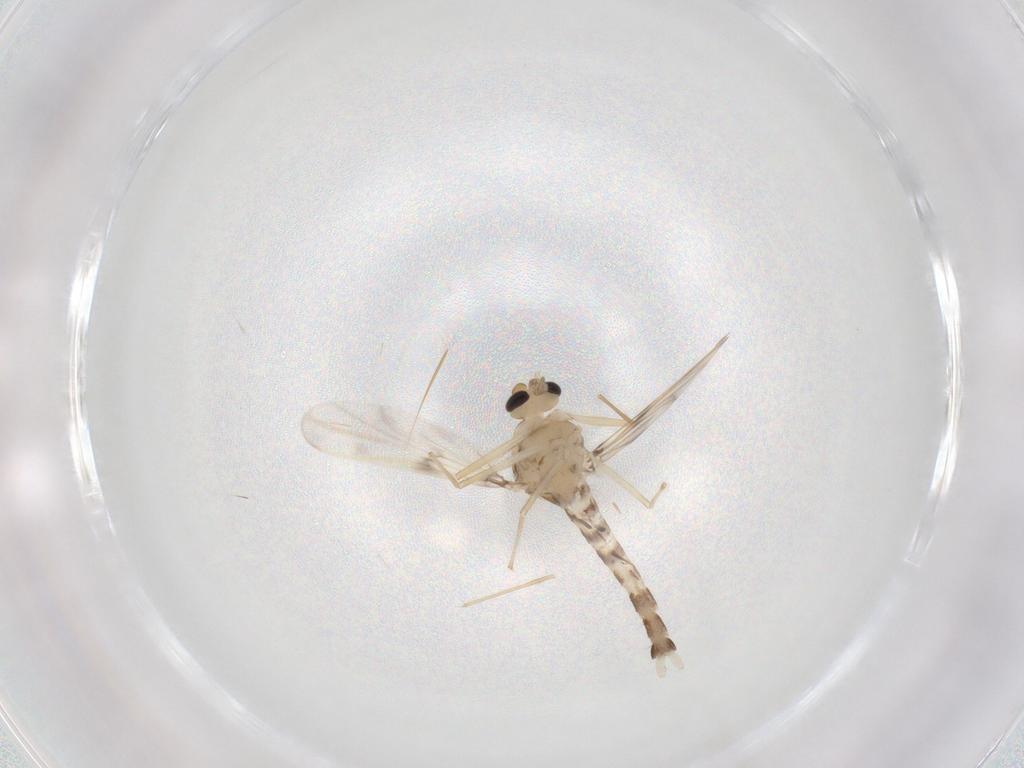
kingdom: Animalia
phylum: Arthropoda
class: Insecta
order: Diptera
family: Chironomidae
